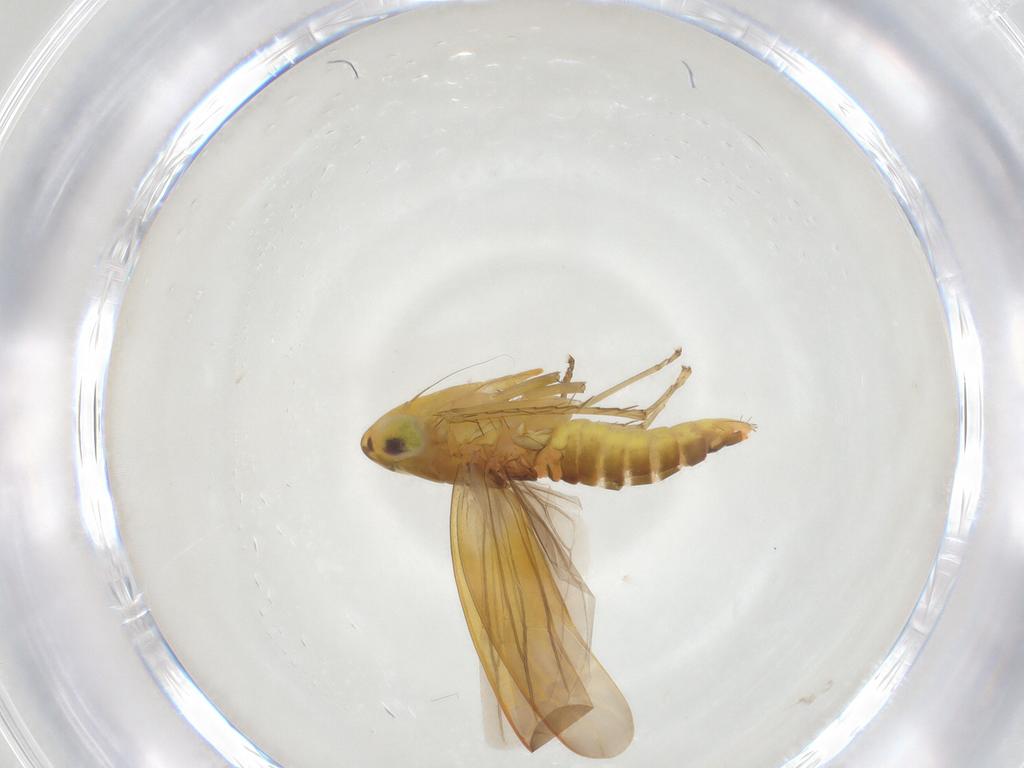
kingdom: Animalia
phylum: Arthropoda
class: Insecta
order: Hemiptera
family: Cicadellidae
